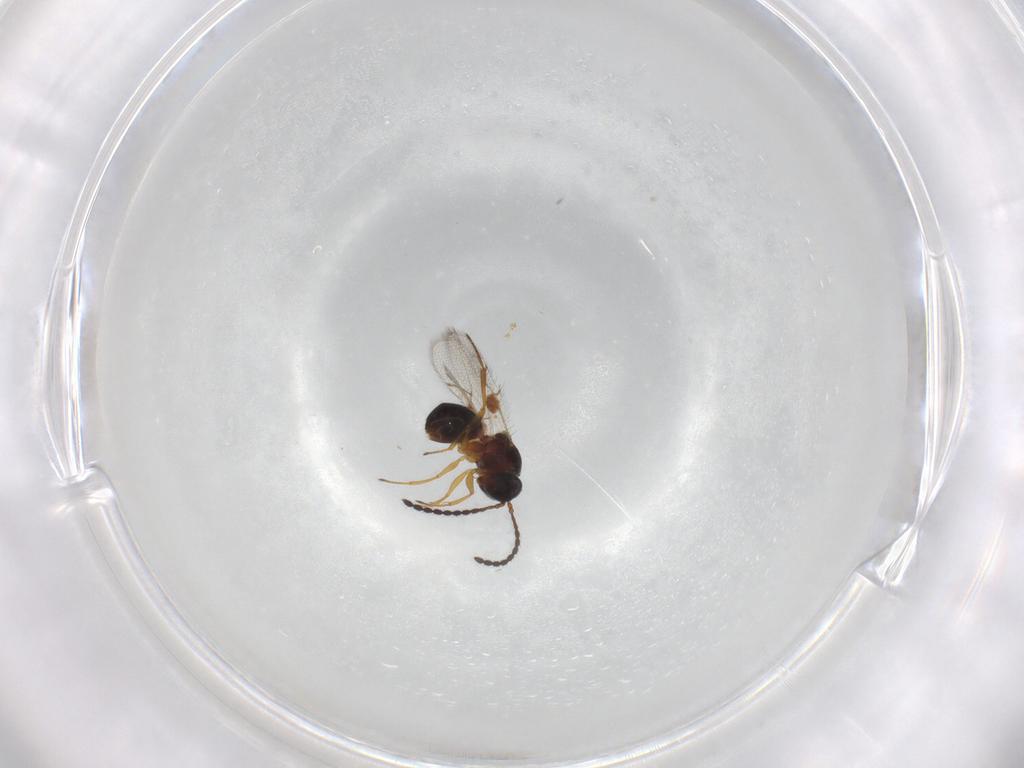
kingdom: Animalia
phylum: Arthropoda
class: Insecta
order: Hymenoptera
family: Figitidae
